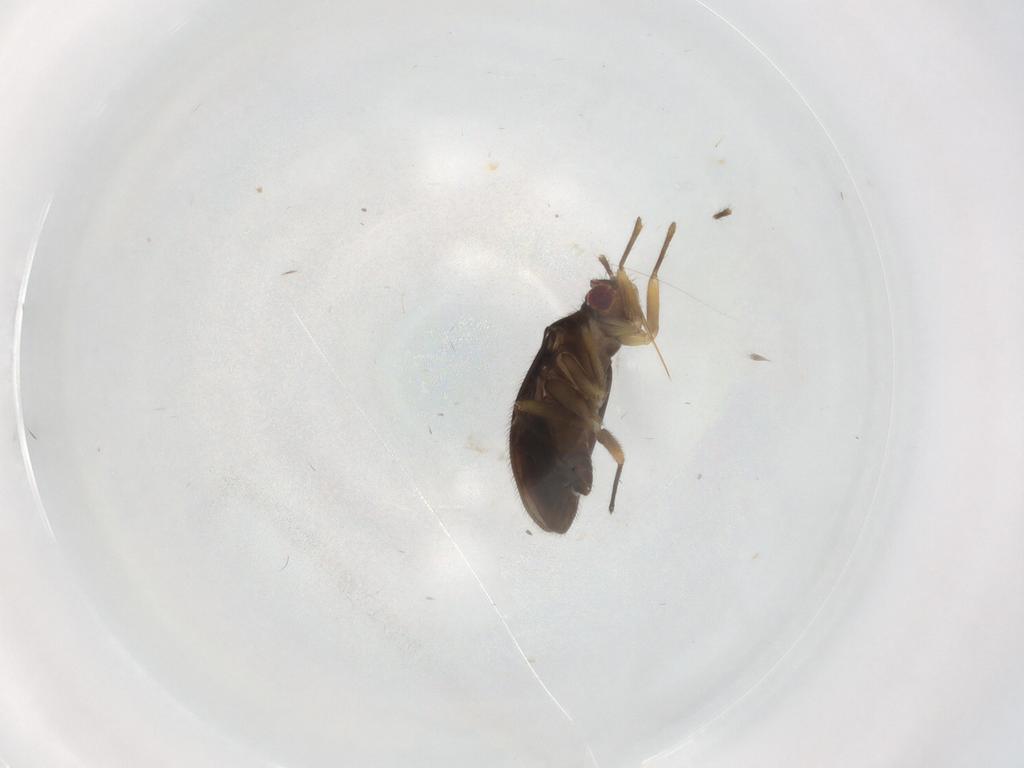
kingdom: Animalia
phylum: Arthropoda
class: Insecta
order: Hemiptera
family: Ceratocombidae
